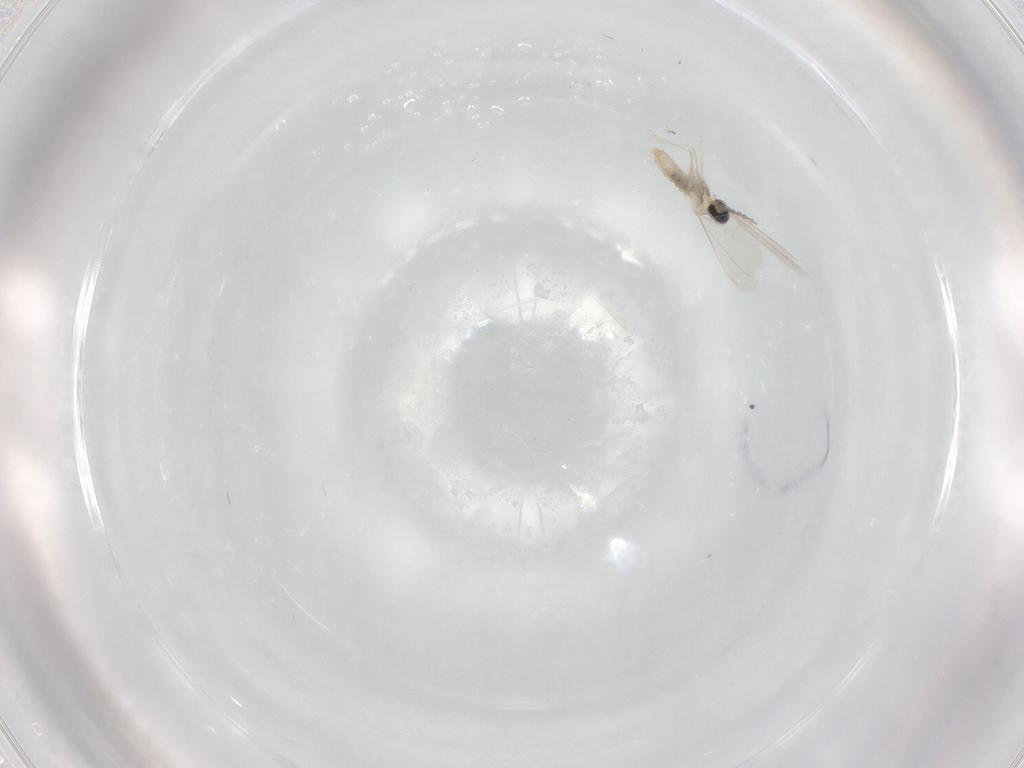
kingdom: Animalia
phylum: Arthropoda
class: Insecta
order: Diptera
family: Cecidomyiidae
